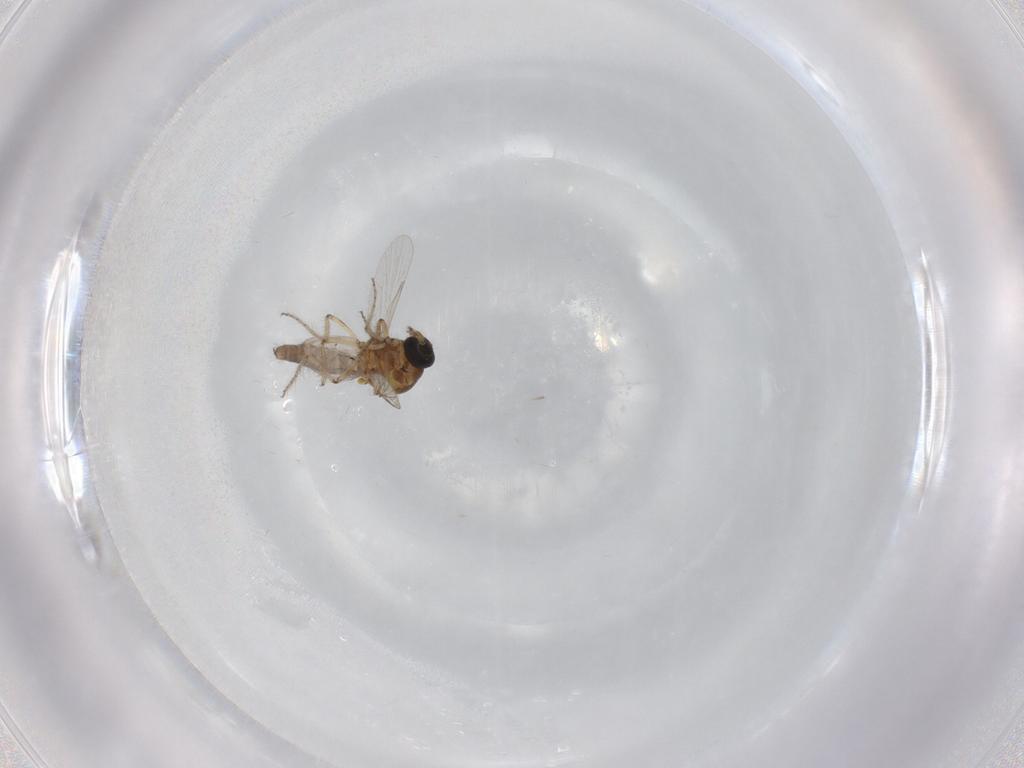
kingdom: Animalia
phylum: Arthropoda
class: Insecta
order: Diptera
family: Ceratopogonidae
